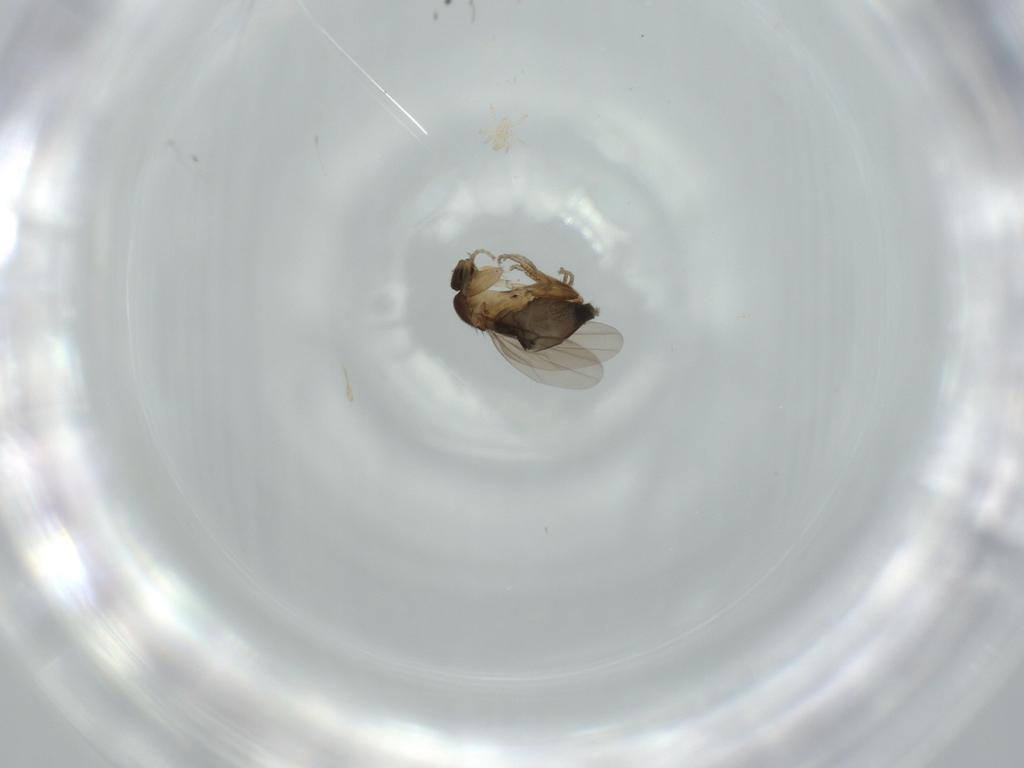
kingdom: Animalia
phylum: Arthropoda
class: Insecta
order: Diptera
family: Phoridae
